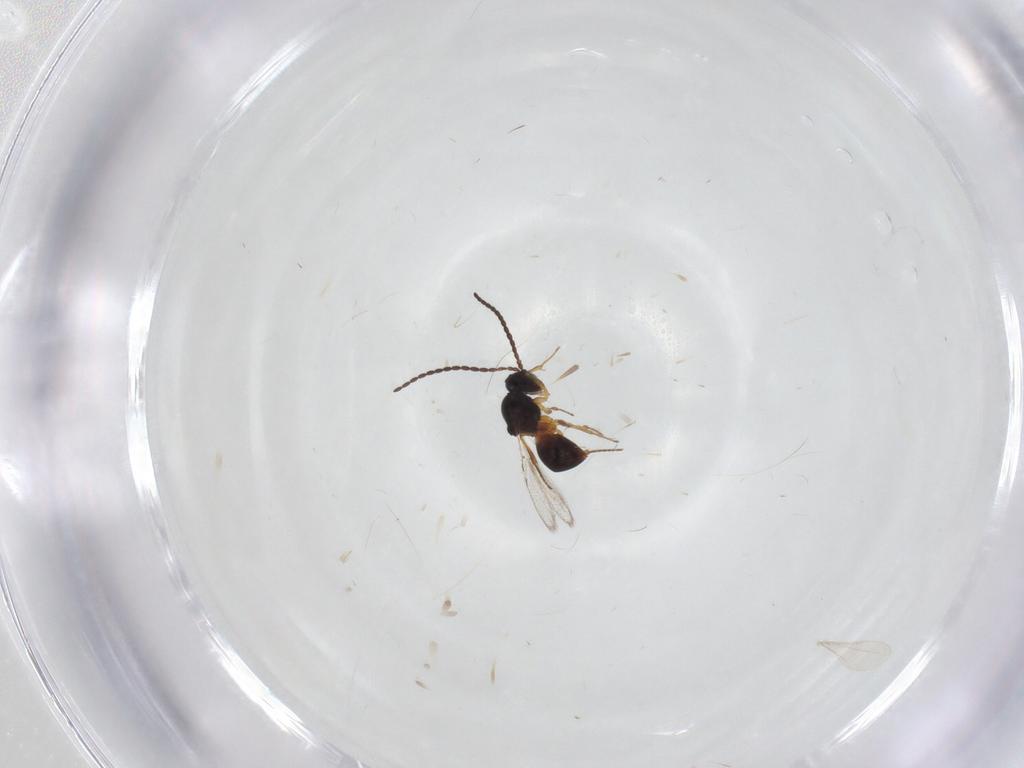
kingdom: Animalia
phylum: Arthropoda
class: Insecta
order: Hymenoptera
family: Figitidae
